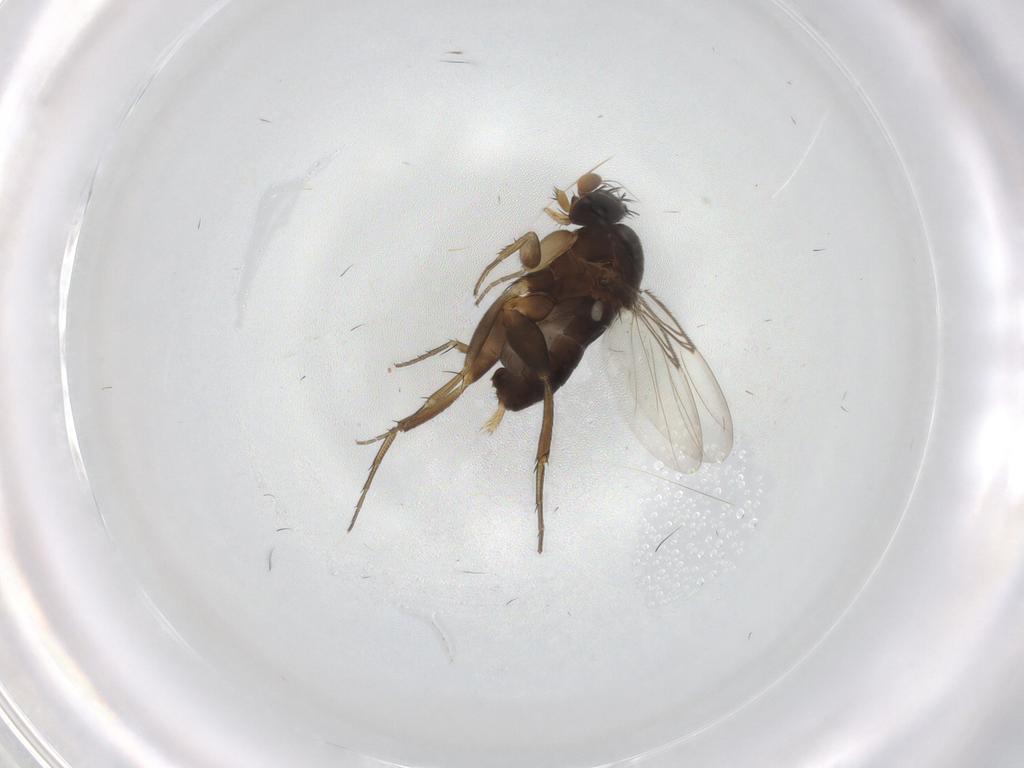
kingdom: Animalia
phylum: Arthropoda
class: Insecta
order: Diptera
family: Phoridae
